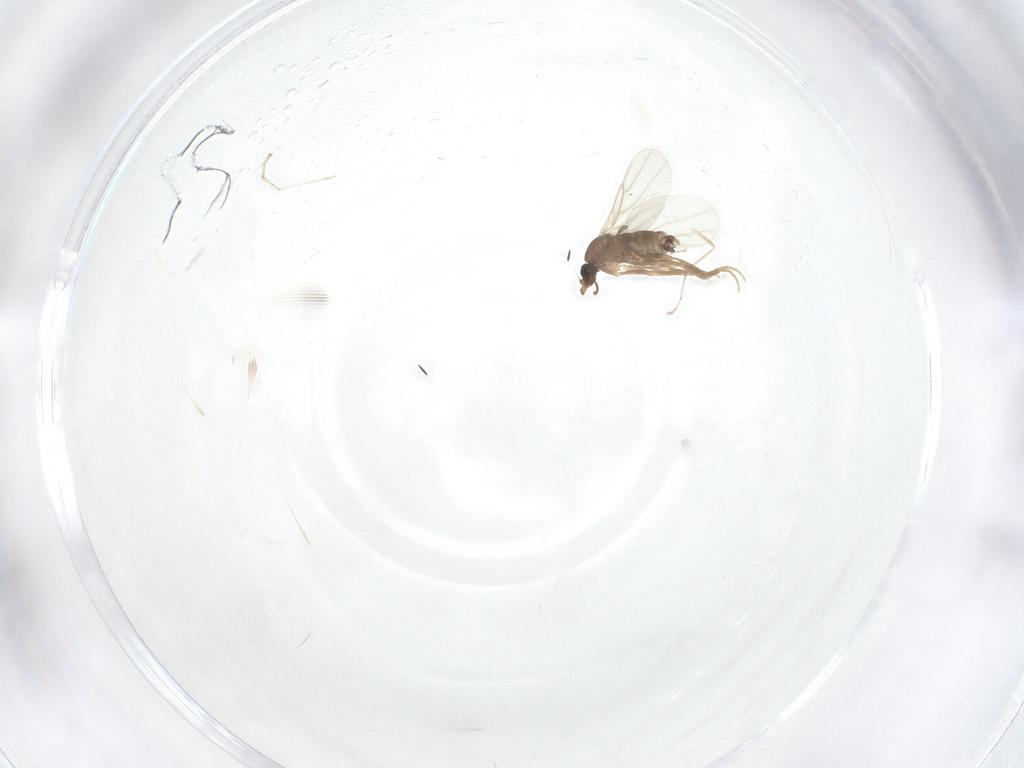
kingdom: Animalia
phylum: Arthropoda
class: Insecta
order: Diptera
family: Phoridae
